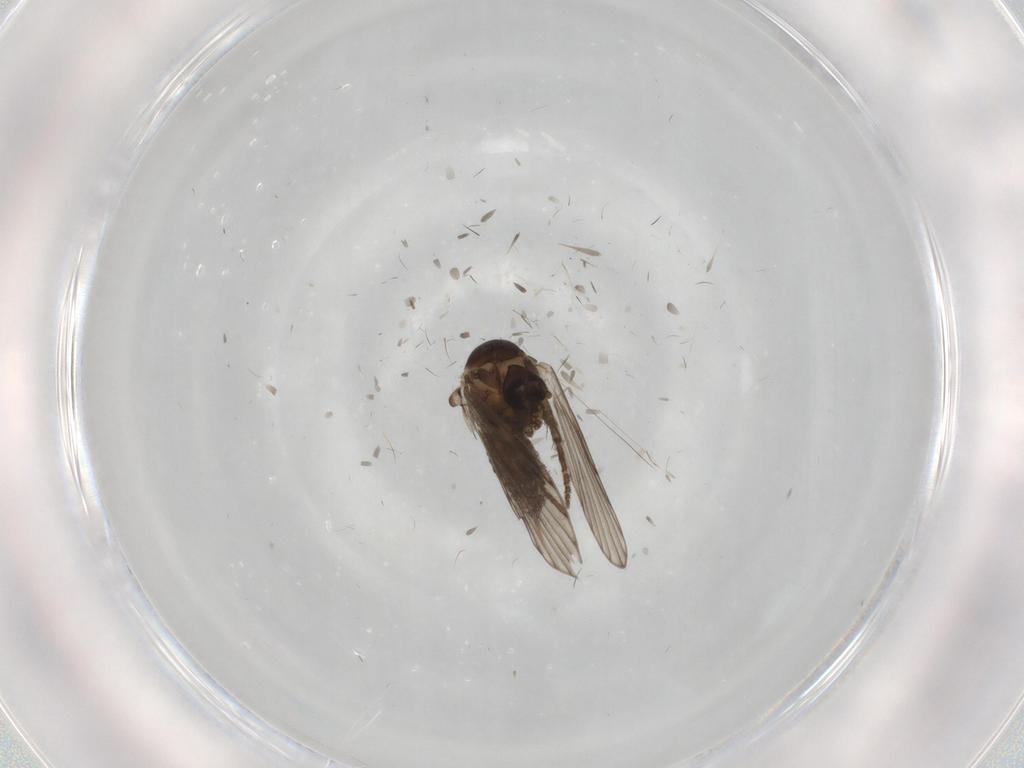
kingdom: Animalia
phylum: Arthropoda
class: Insecta
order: Diptera
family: Psychodidae
